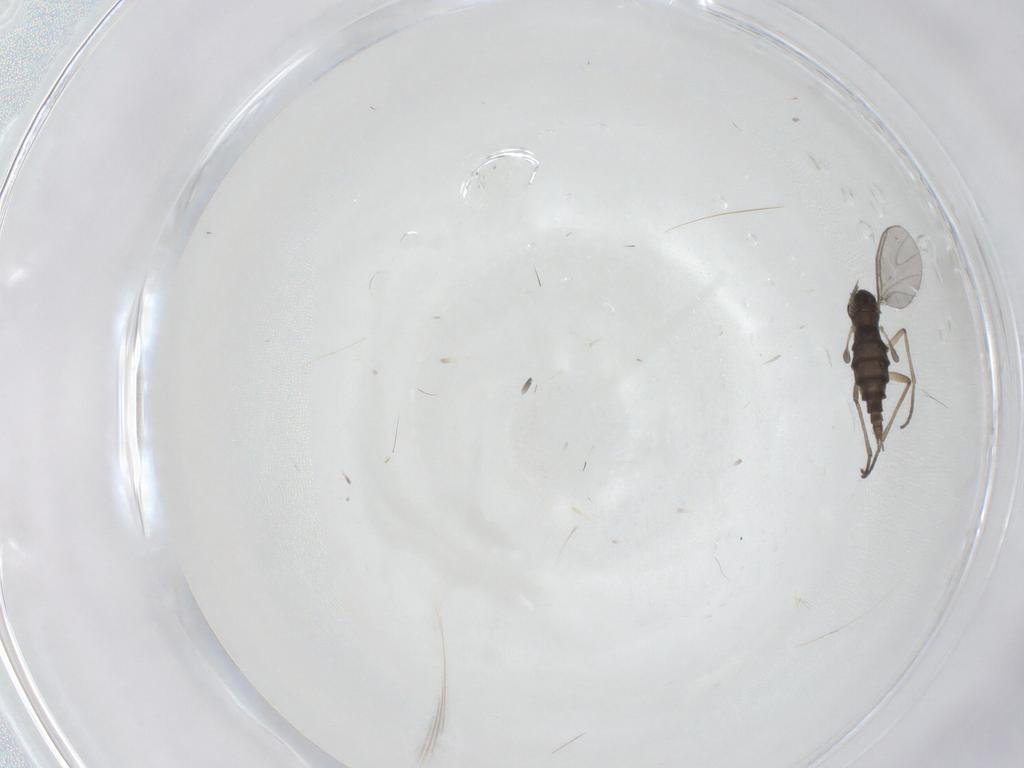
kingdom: Animalia
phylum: Arthropoda
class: Insecta
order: Diptera
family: Sciaridae
